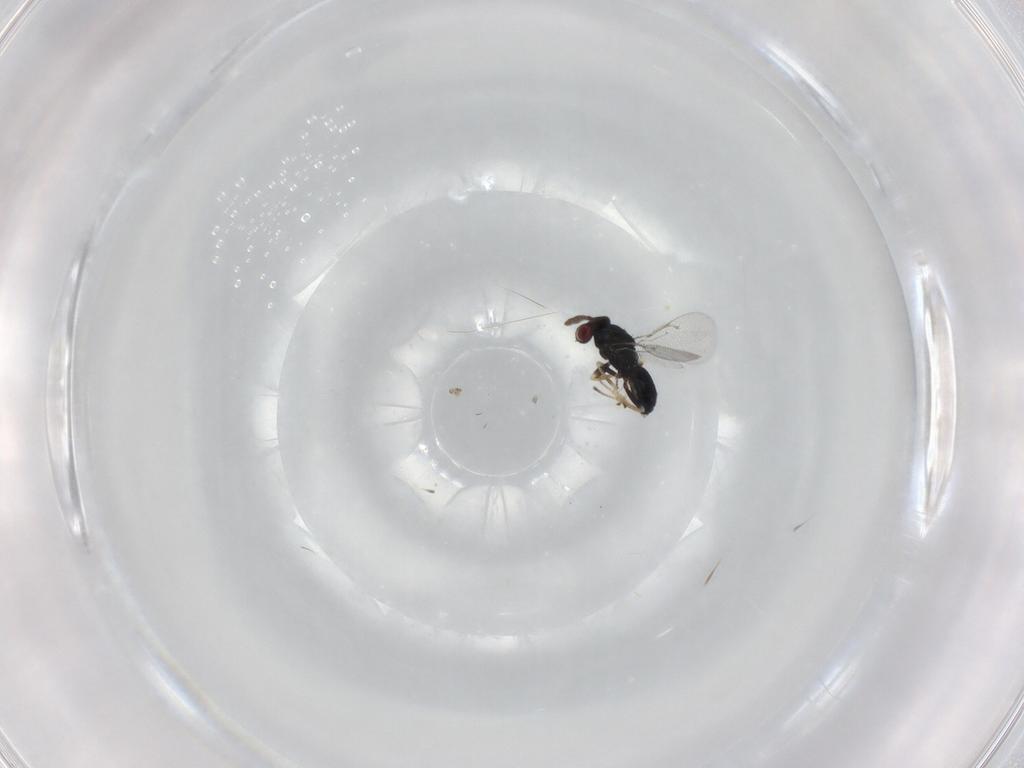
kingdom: Animalia
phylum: Arthropoda
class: Insecta
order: Hymenoptera
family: Eulophidae
